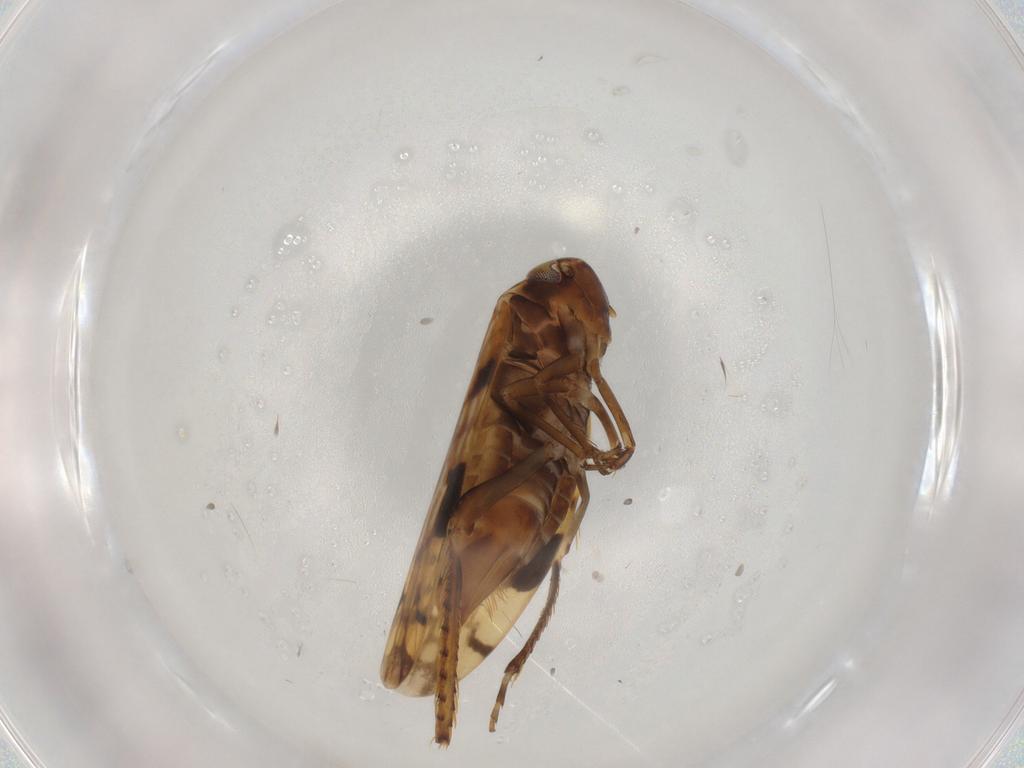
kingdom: Animalia
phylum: Arthropoda
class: Insecta
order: Hemiptera
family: Cicadellidae
